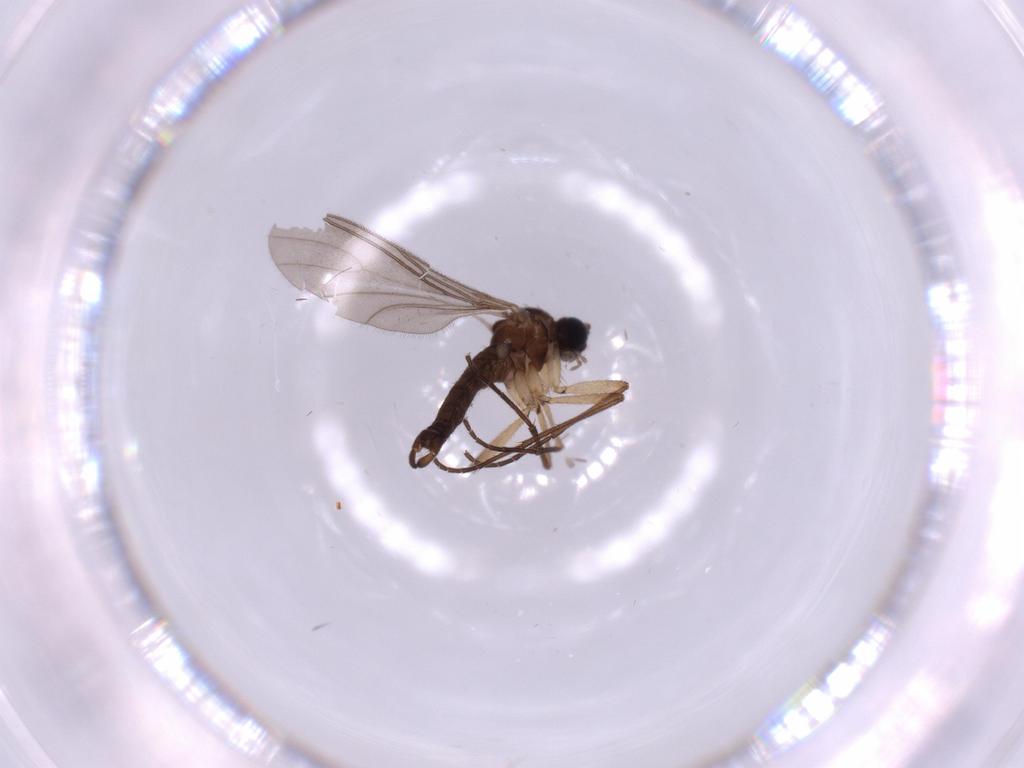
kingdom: Animalia
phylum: Arthropoda
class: Insecta
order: Diptera
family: Sciaridae
